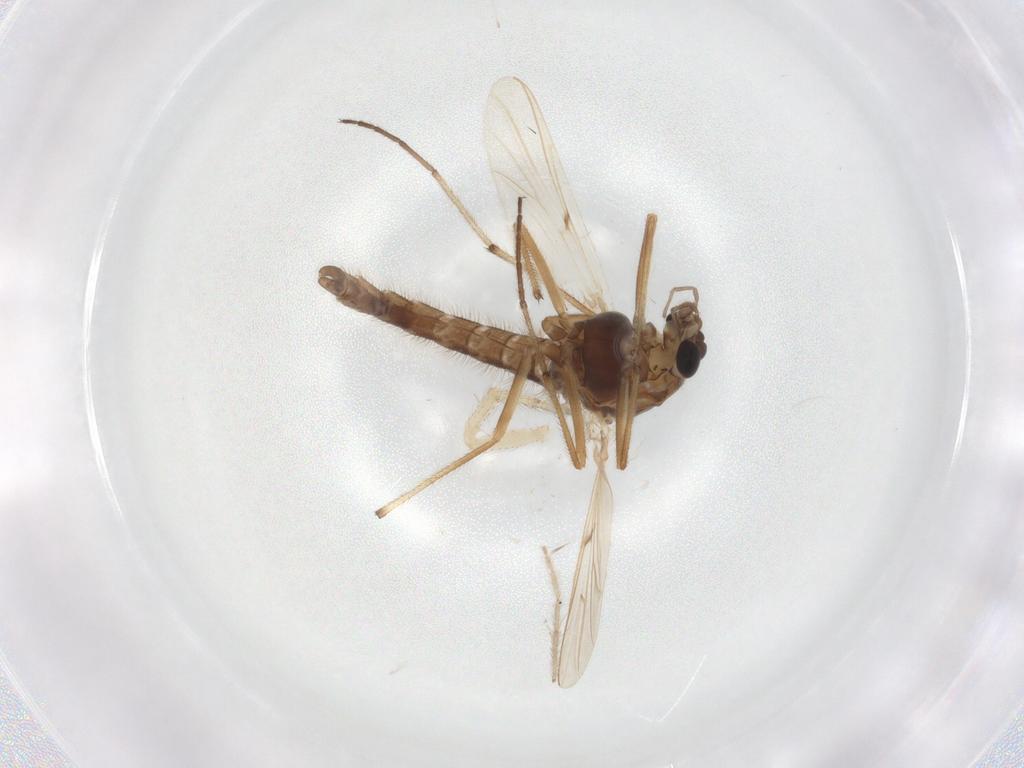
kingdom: Animalia
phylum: Arthropoda
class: Insecta
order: Diptera
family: Chironomidae
